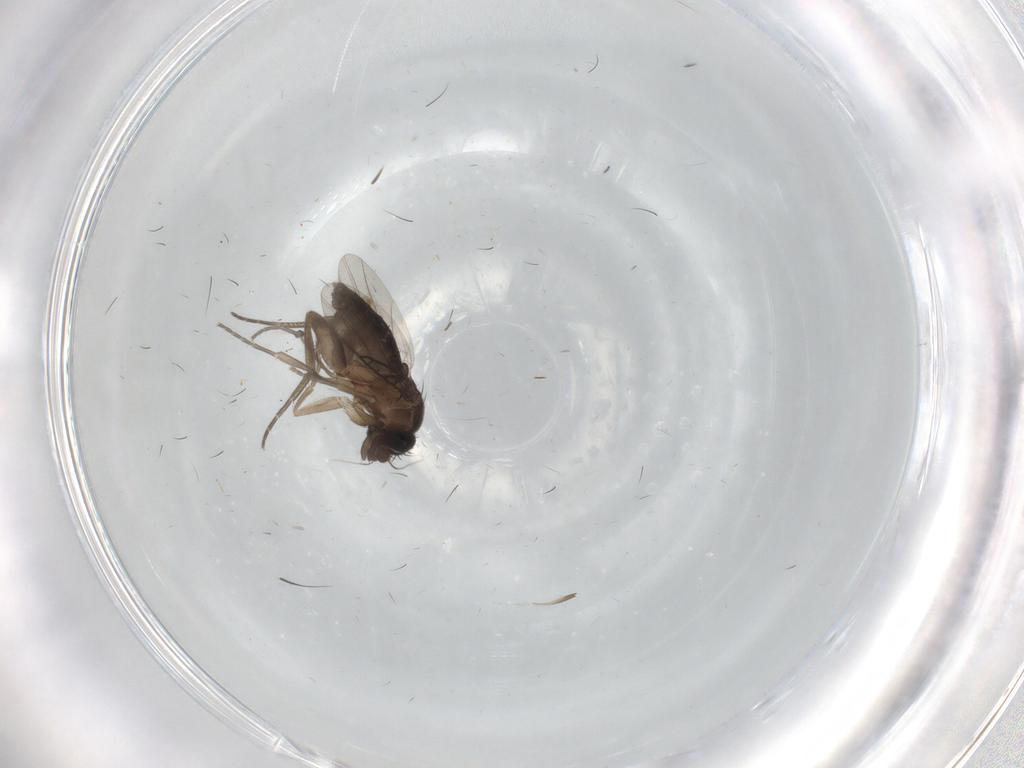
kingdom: Animalia
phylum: Arthropoda
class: Insecta
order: Diptera
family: Phoridae
